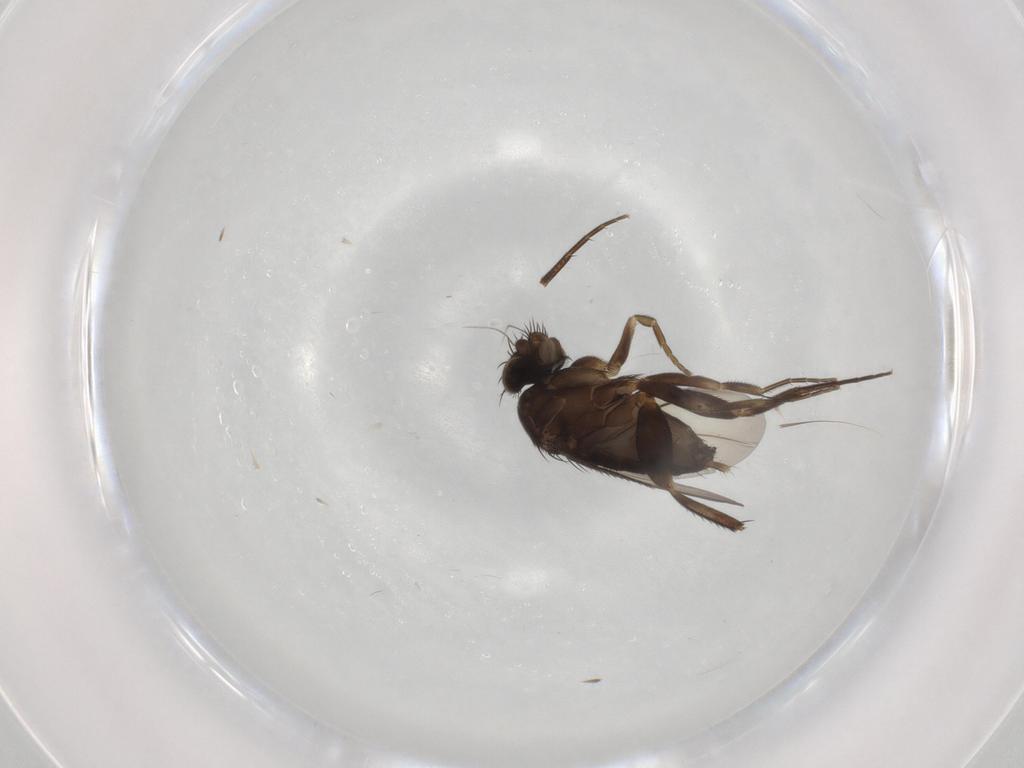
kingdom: Animalia
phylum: Arthropoda
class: Insecta
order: Diptera
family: Phoridae
